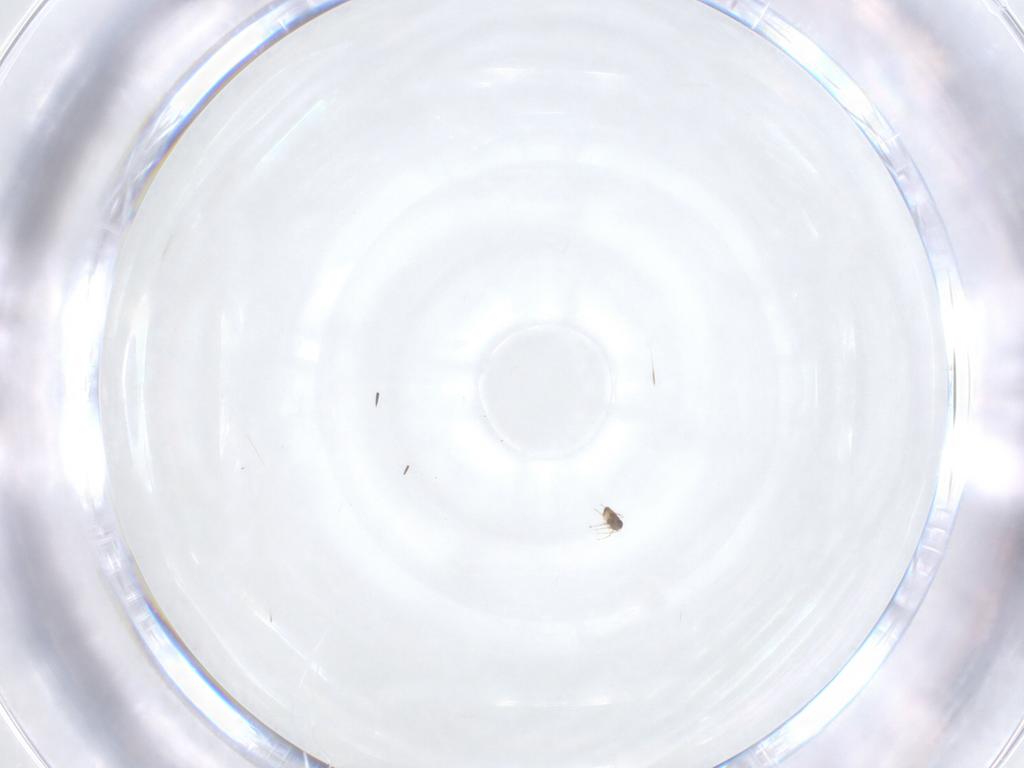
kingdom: Animalia
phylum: Arthropoda
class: Insecta
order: Hymenoptera
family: Mymaridae
